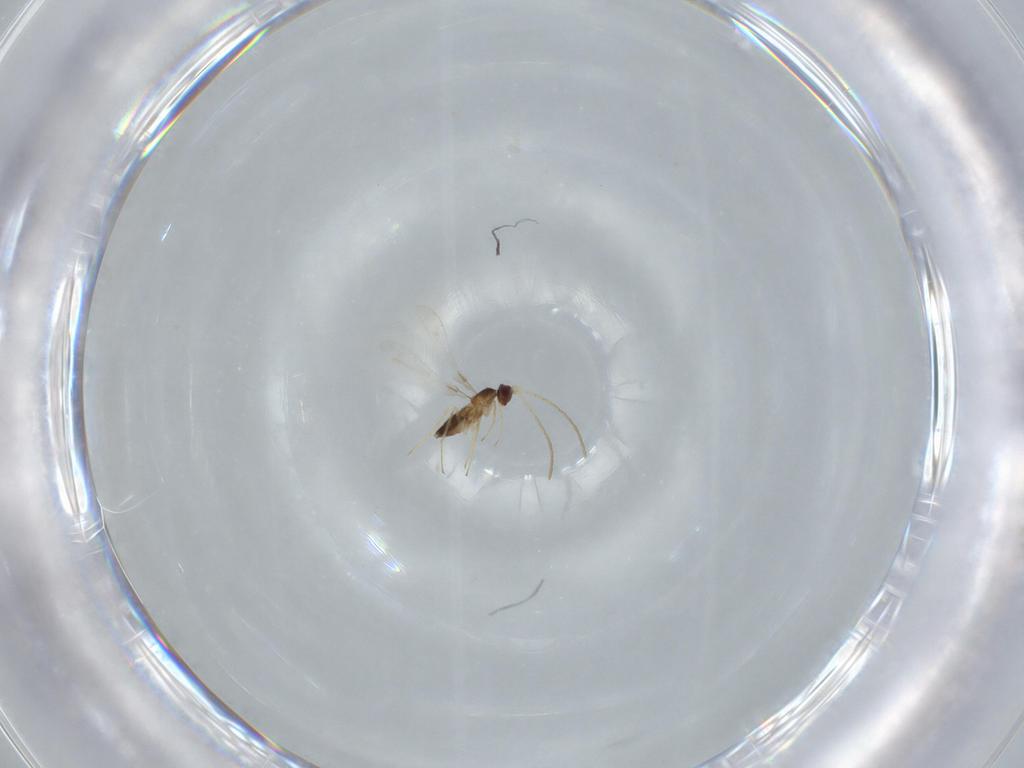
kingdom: Animalia
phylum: Arthropoda
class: Insecta
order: Hymenoptera
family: Mymaridae
